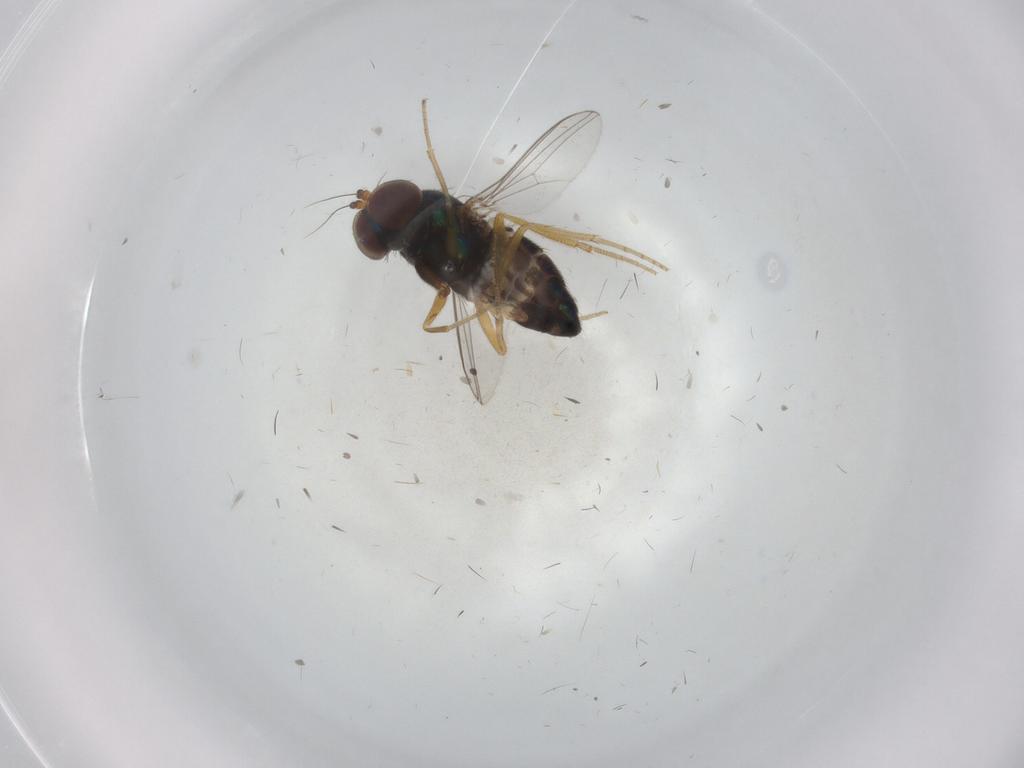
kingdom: Animalia
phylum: Arthropoda
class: Insecta
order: Diptera
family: Dolichopodidae
